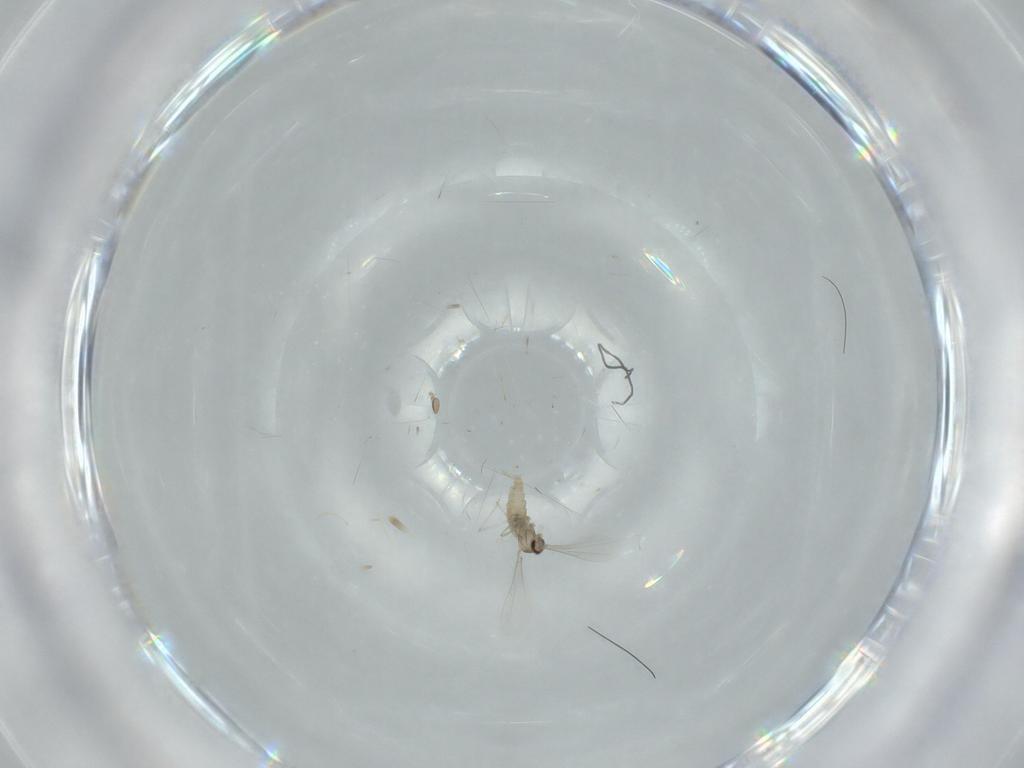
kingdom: Animalia
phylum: Arthropoda
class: Insecta
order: Diptera
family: Cecidomyiidae
